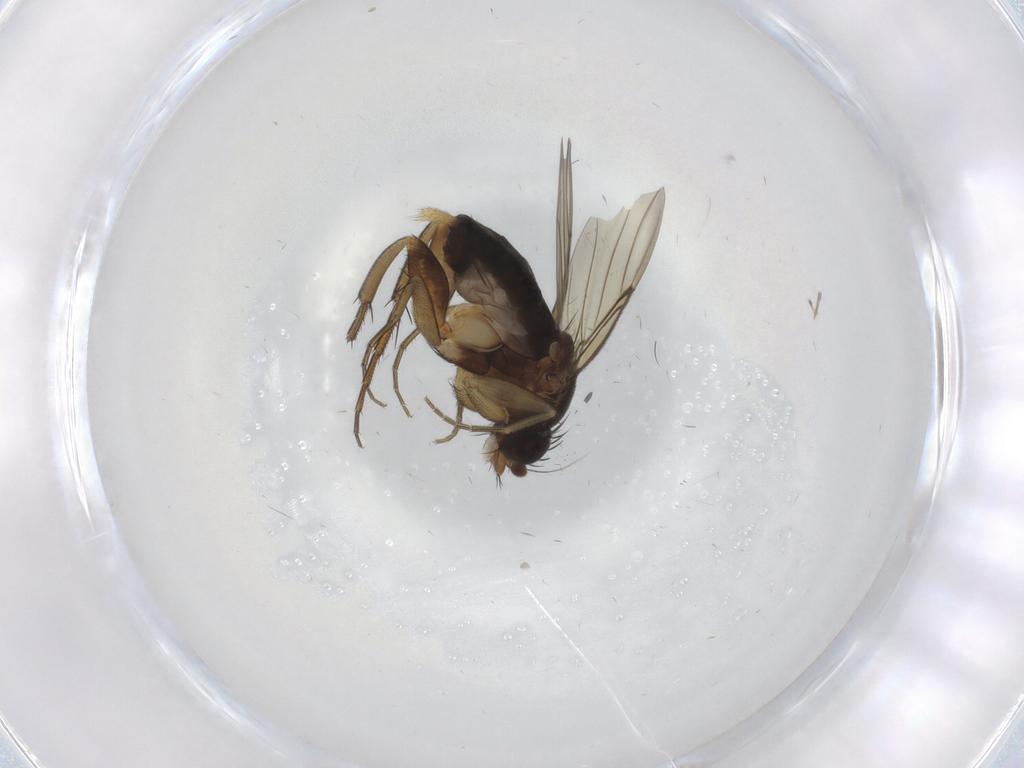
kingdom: Animalia
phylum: Arthropoda
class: Insecta
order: Diptera
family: Phoridae
